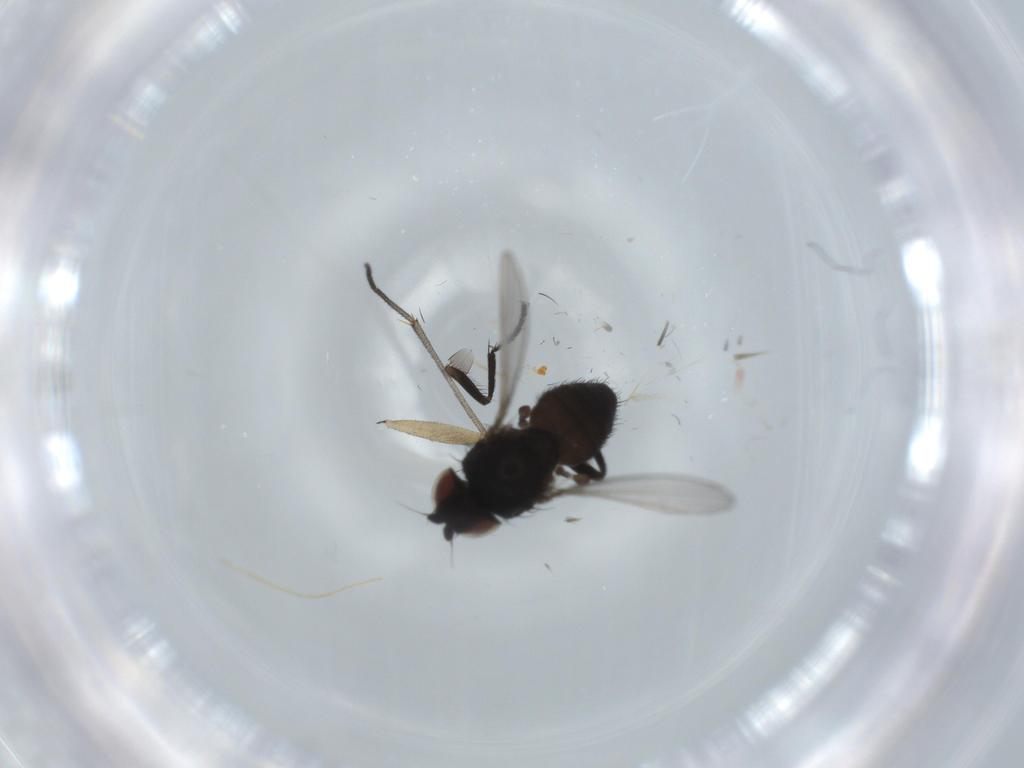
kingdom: Animalia
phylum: Arthropoda
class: Insecta
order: Diptera
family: Sciaridae
